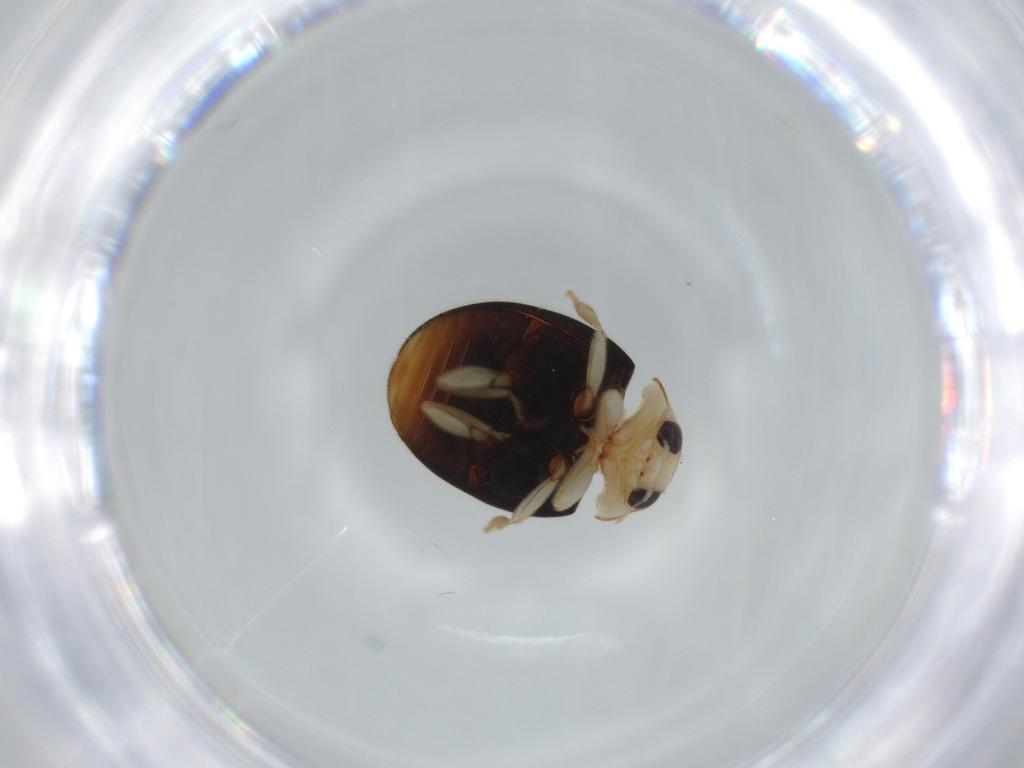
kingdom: Animalia
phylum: Arthropoda
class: Insecta
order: Coleoptera
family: Coccinellidae
